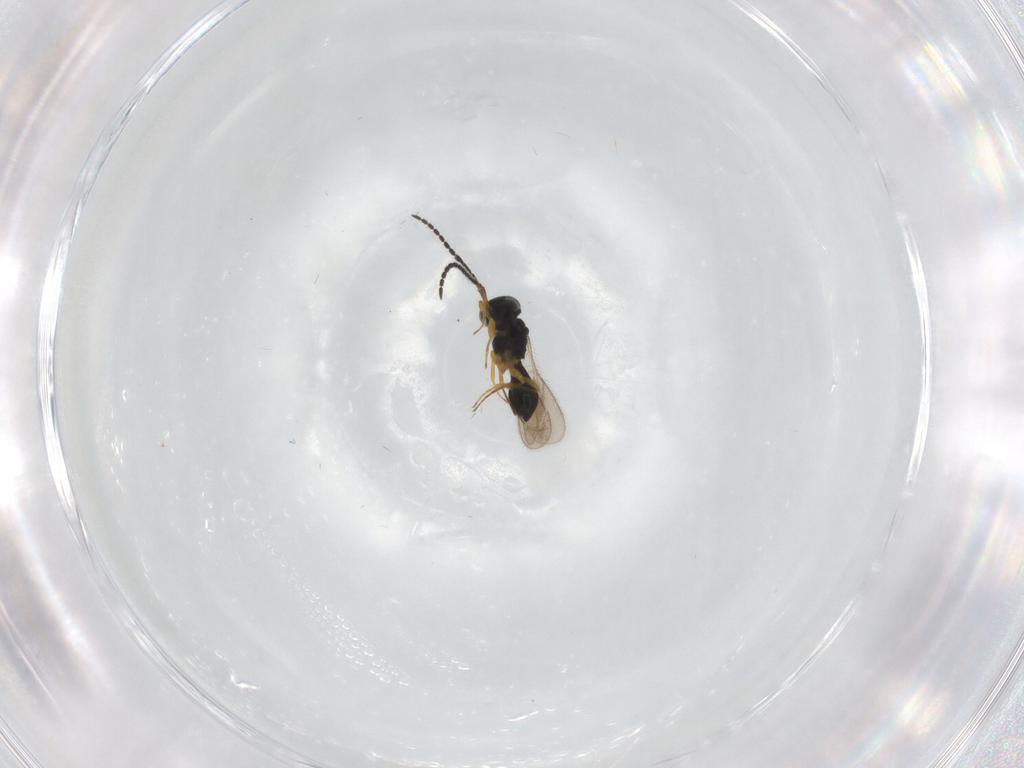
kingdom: Animalia
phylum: Arthropoda
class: Insecta
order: Hymenoptera
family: Scelionidae
